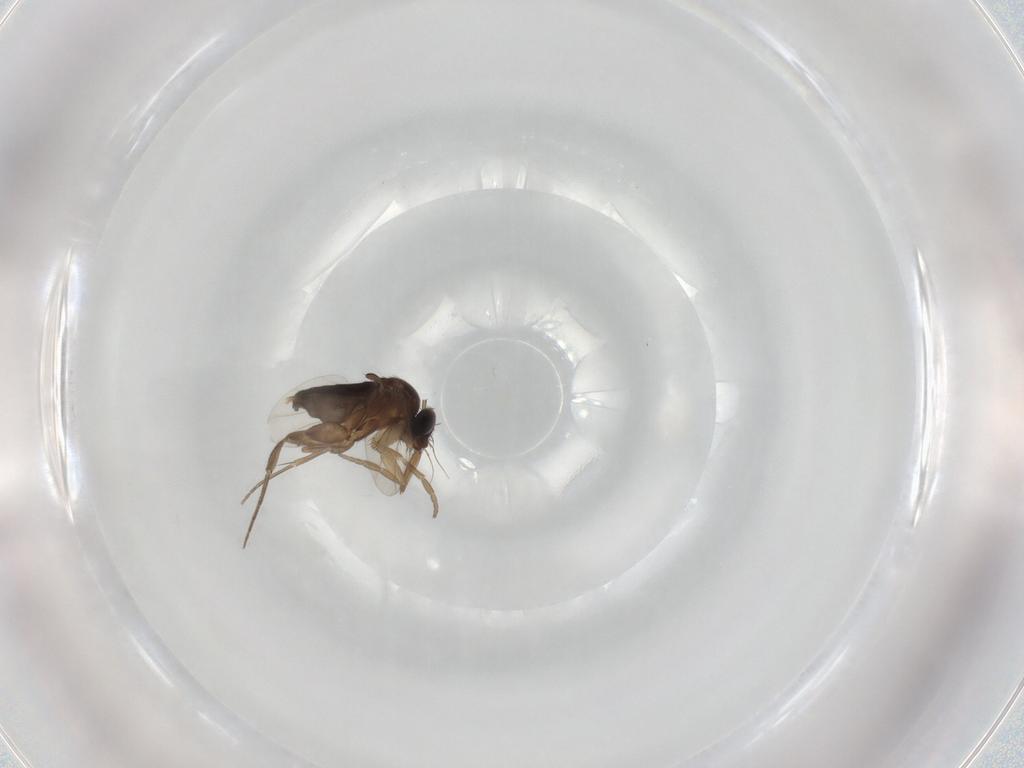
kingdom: Animalia
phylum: Arthropoda
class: Insecta
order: Diptera
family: Phoridae
